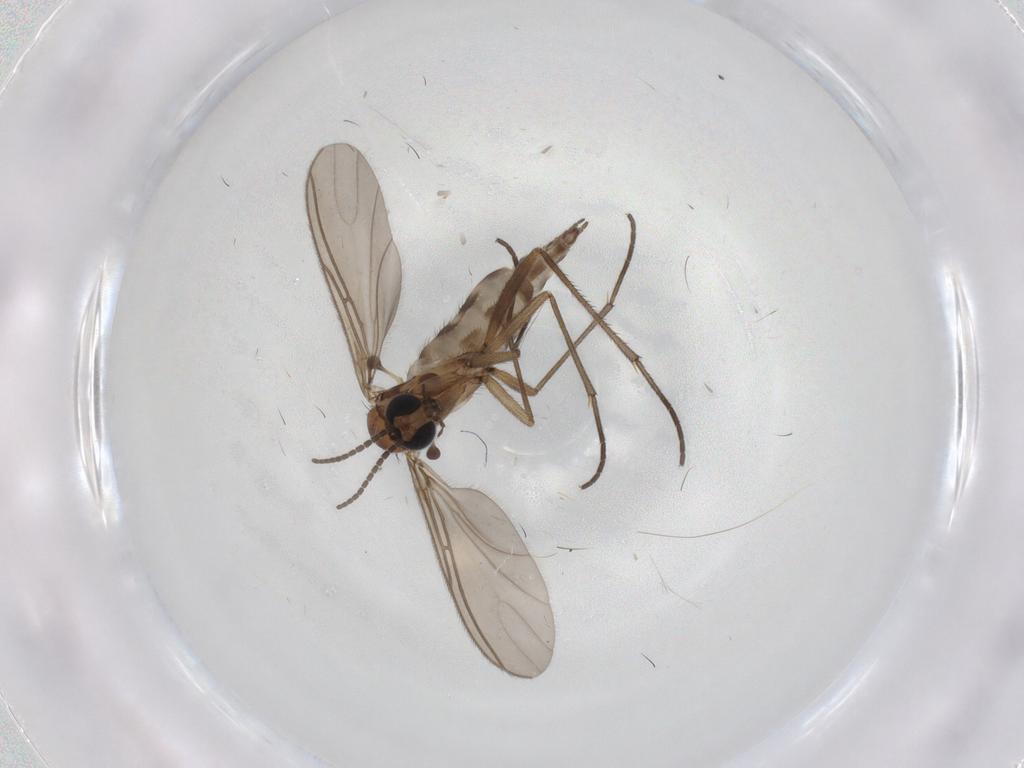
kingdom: Animalia
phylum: Arthropoda
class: Insecta
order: Diptera
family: Sciaridae
